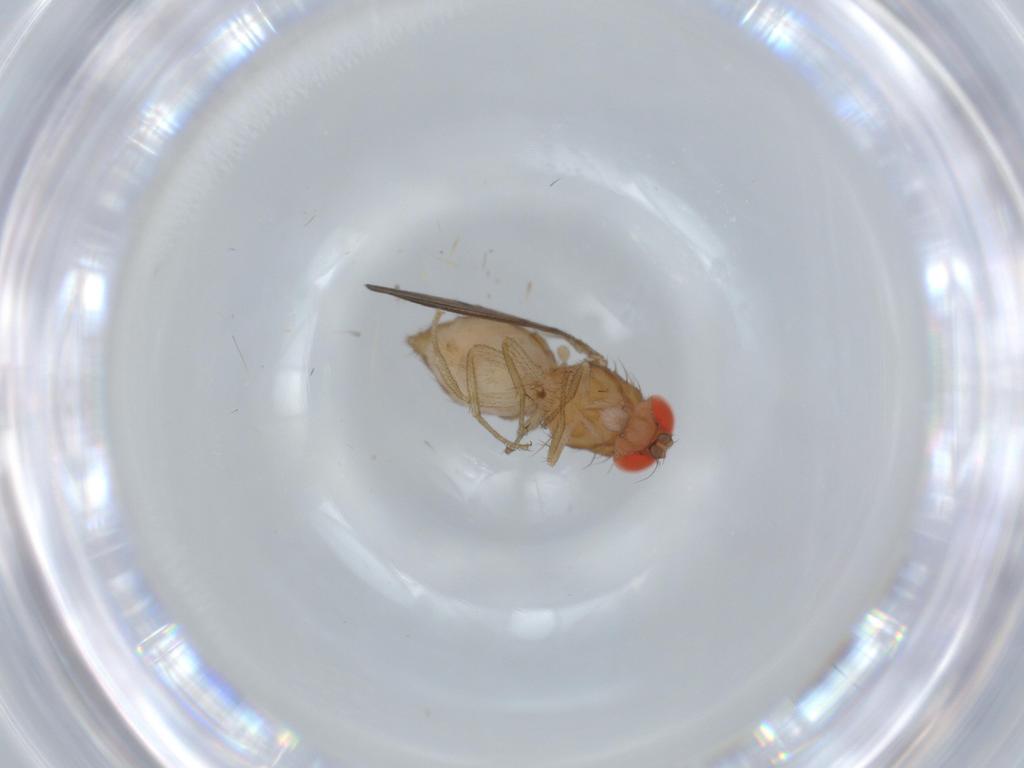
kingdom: Animalia
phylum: Arthropoda
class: Insecta
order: Diptera
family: Drosophilidae
